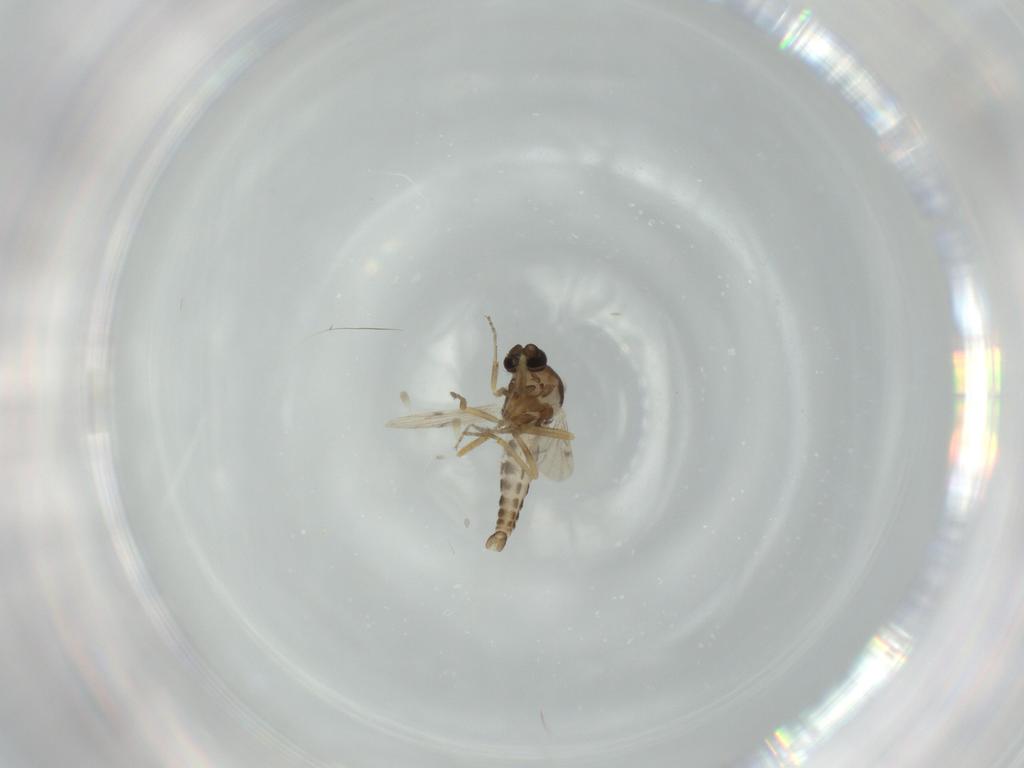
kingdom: Animalia
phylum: Arthropoda
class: Insecta
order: Diptera
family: Ceratopogonidae
